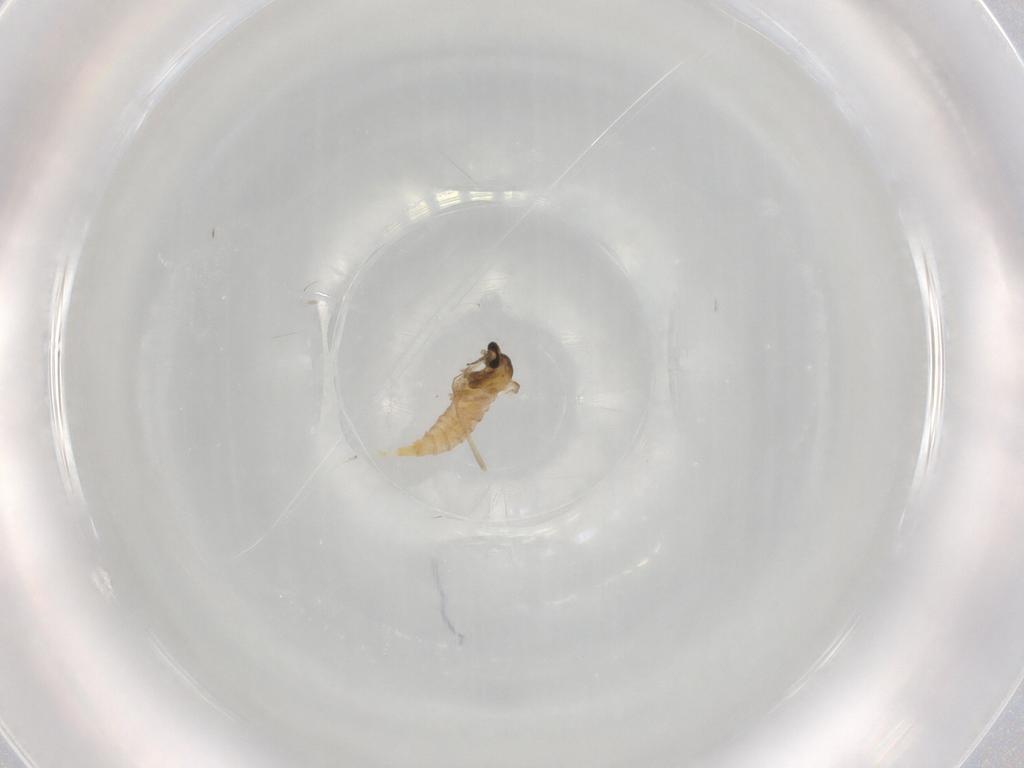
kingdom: Animalia
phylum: Arthropoda
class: Insecta
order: Diptera
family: Cecidomyiidae
